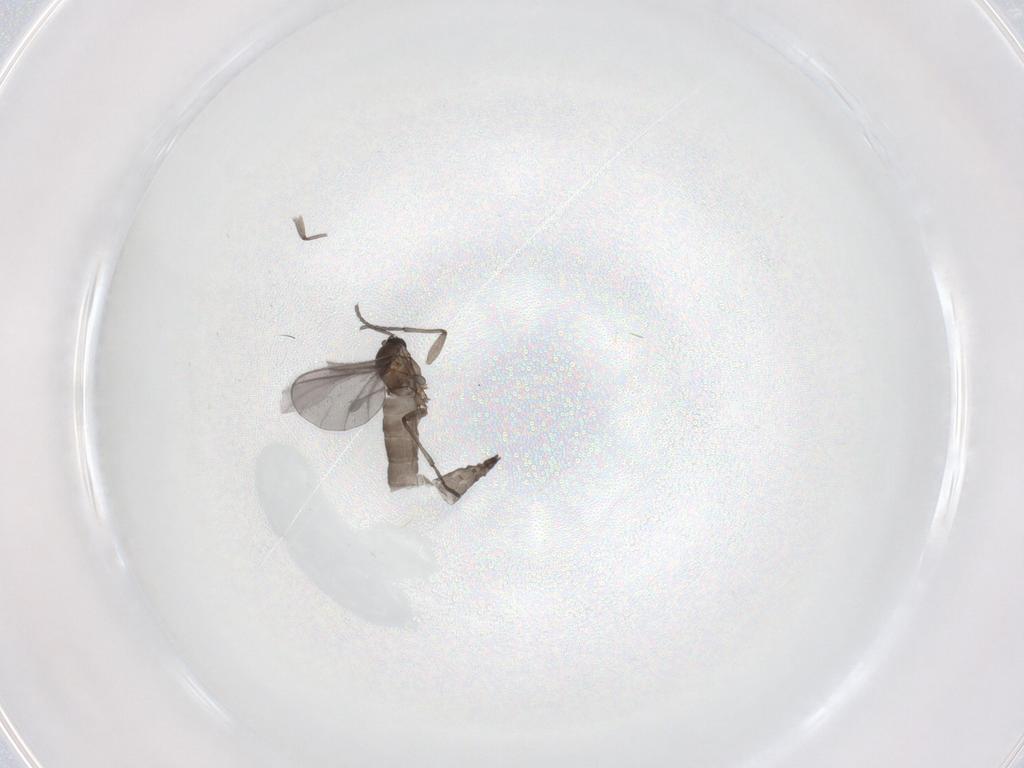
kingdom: Animalia
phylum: Arthropoda
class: Insecta
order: Diptera
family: Sciaridae
